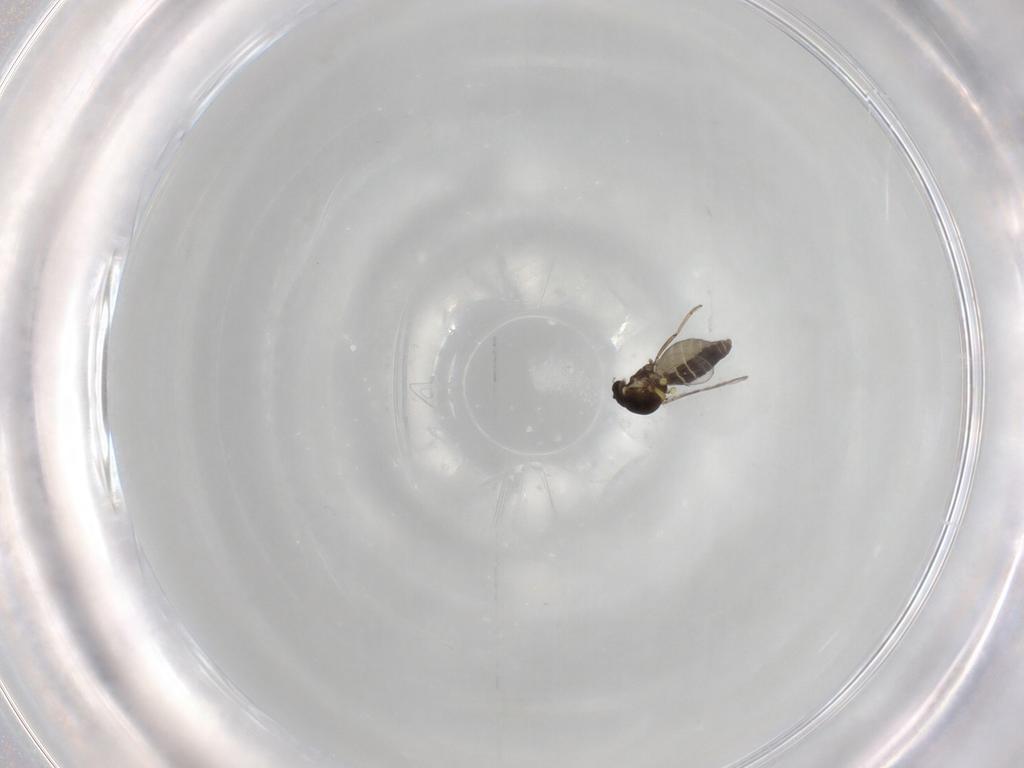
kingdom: Animalia
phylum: Arthropoda
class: Insecta
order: Diptera
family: Ceratopogonidae
